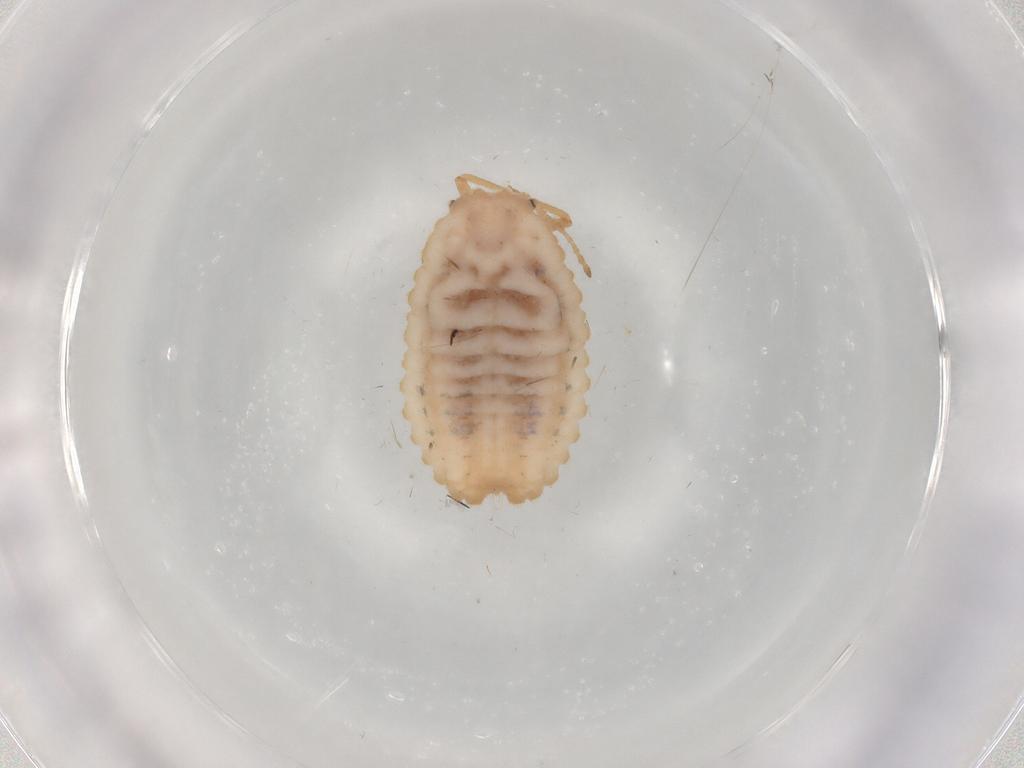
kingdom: Animalia
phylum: Arthropoda
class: Insecta
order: Hemiptera
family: Coccoidea_incertae_sedis
